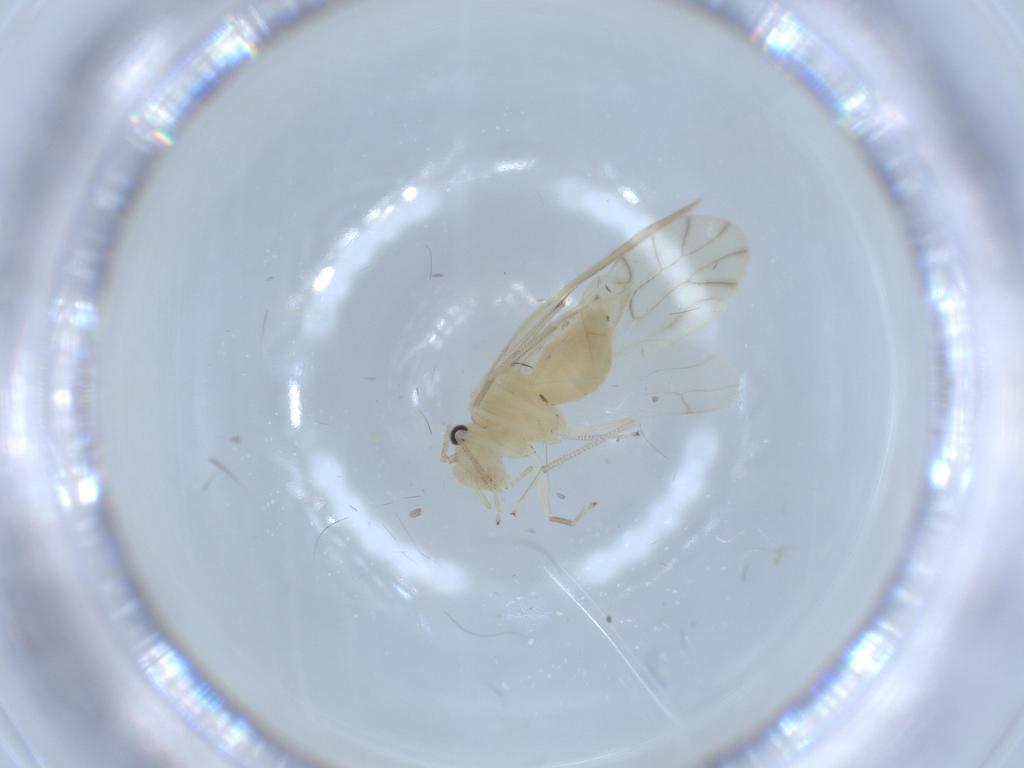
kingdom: Animalia
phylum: Arthropoda
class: Insecta
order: Psocodea
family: Caeciliusidae
